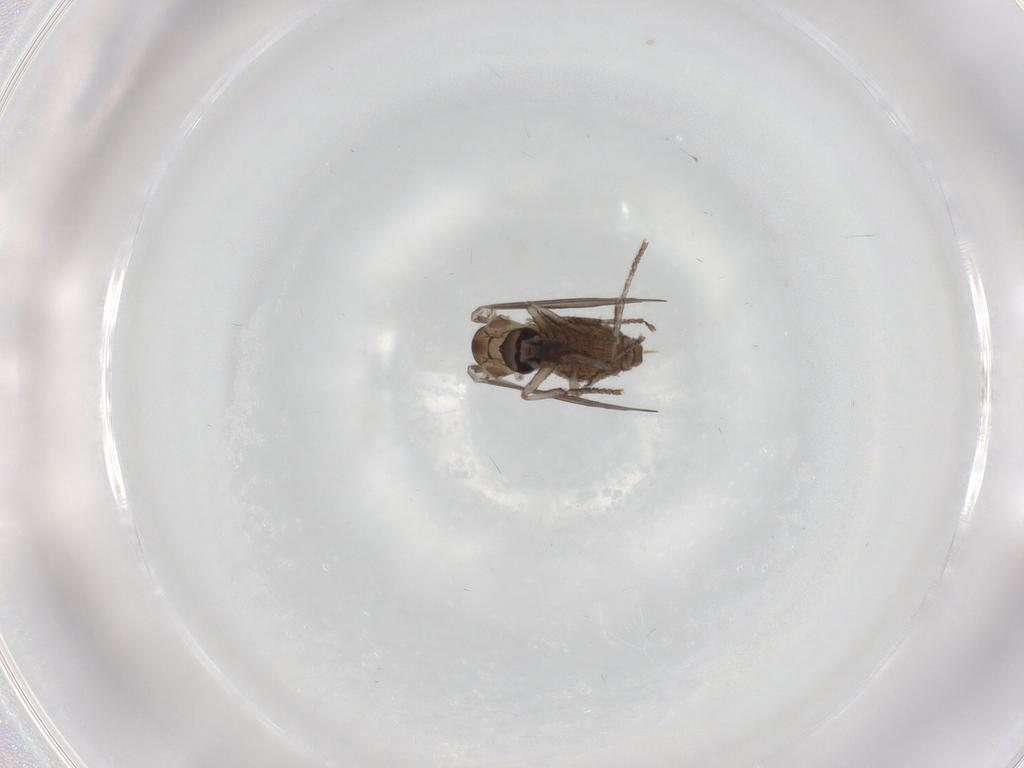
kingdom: Animalia
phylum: Arthropoda
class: Insecta
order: Diptera
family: Psychodidae
